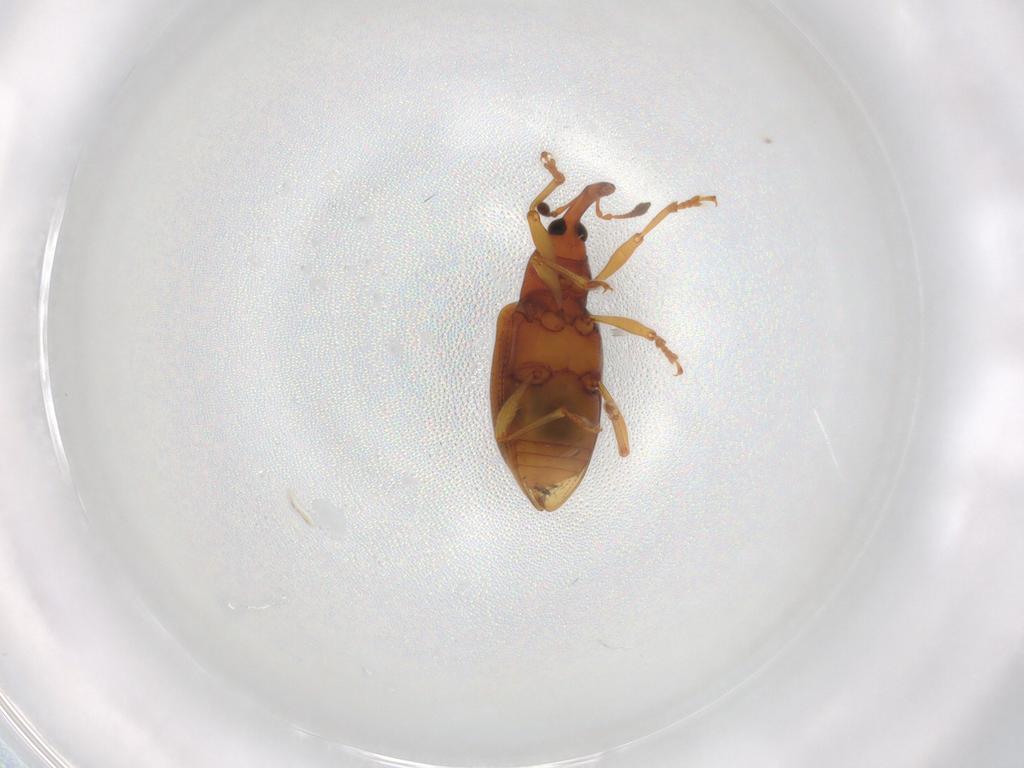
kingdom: Animalia
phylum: Arthropoda
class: Insecta
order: Coleoptera
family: Curculionidae
